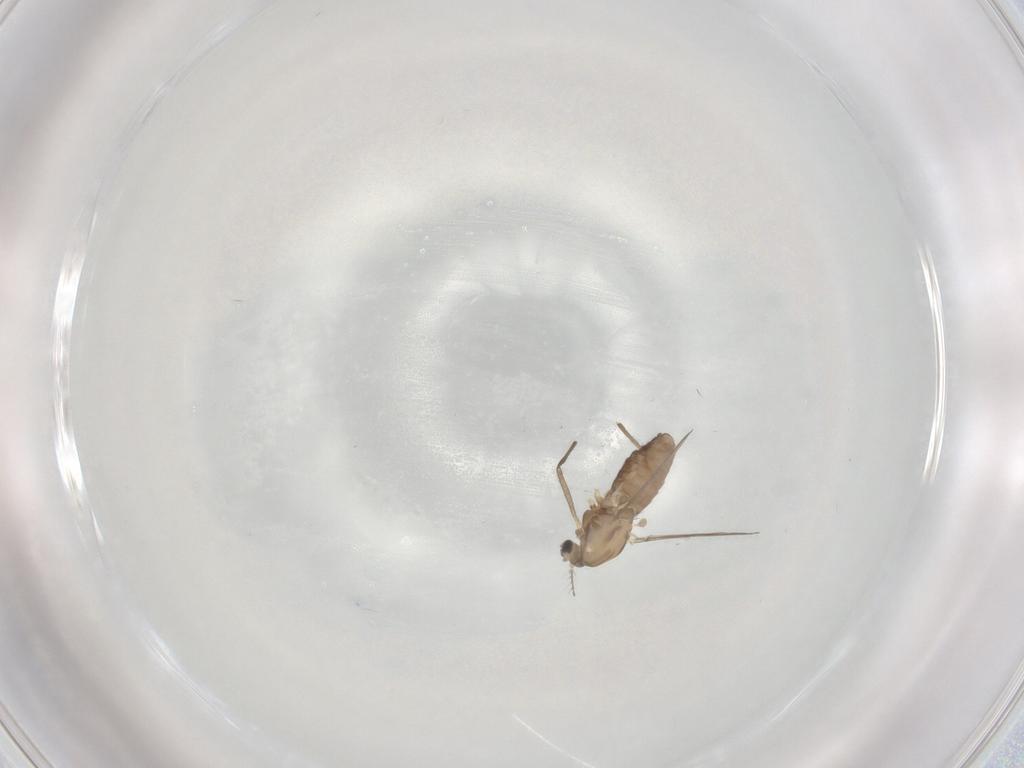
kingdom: Animalia
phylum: Arthropoda
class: Insecta
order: Diptera
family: Chironomidae
